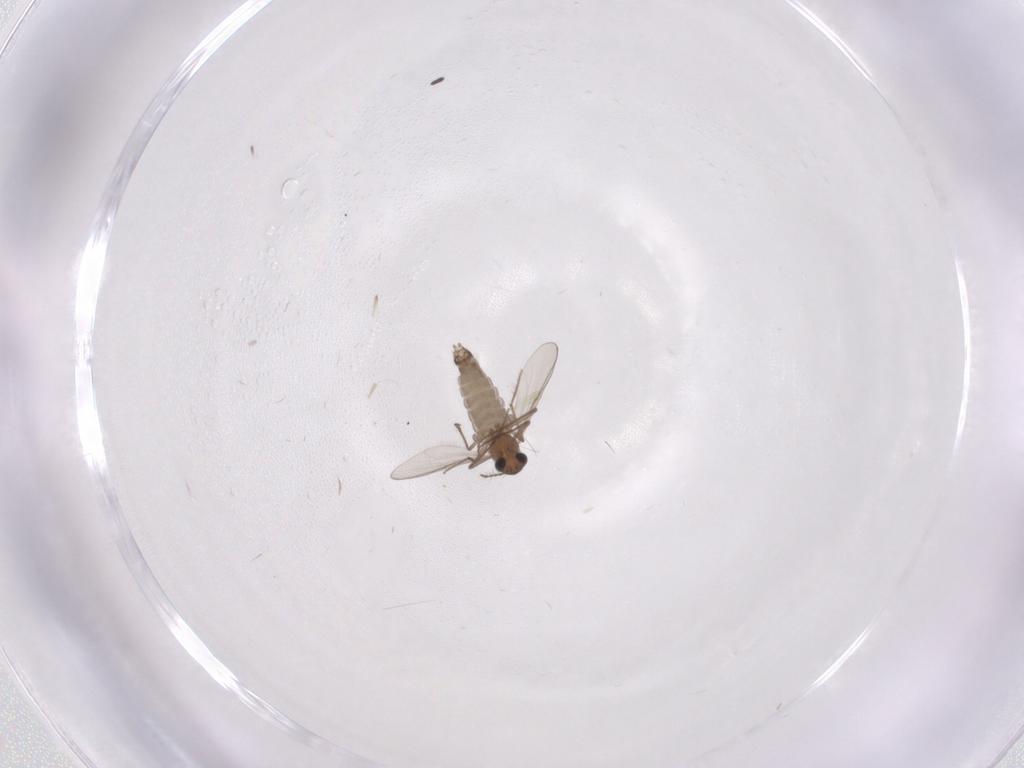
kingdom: Animalia
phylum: Arthropoda
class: Insecta
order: Diptera
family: Chironomidae
